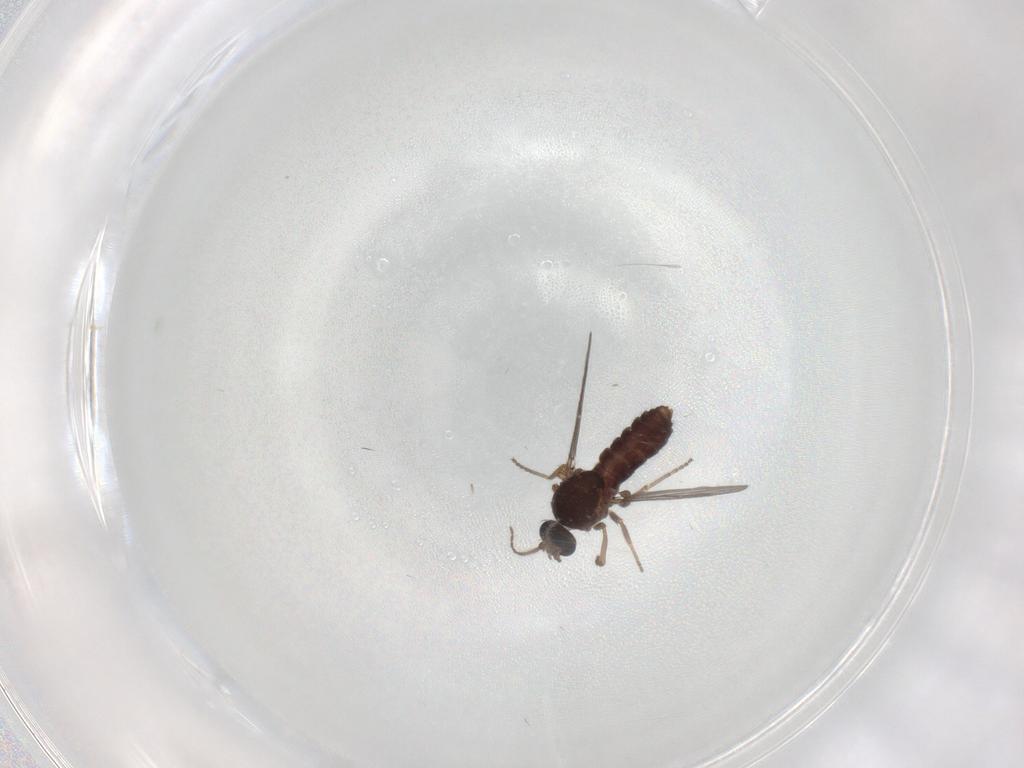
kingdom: Animalia
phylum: Arthropoda
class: Insecta
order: Diptera
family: Ceratopogonidae
